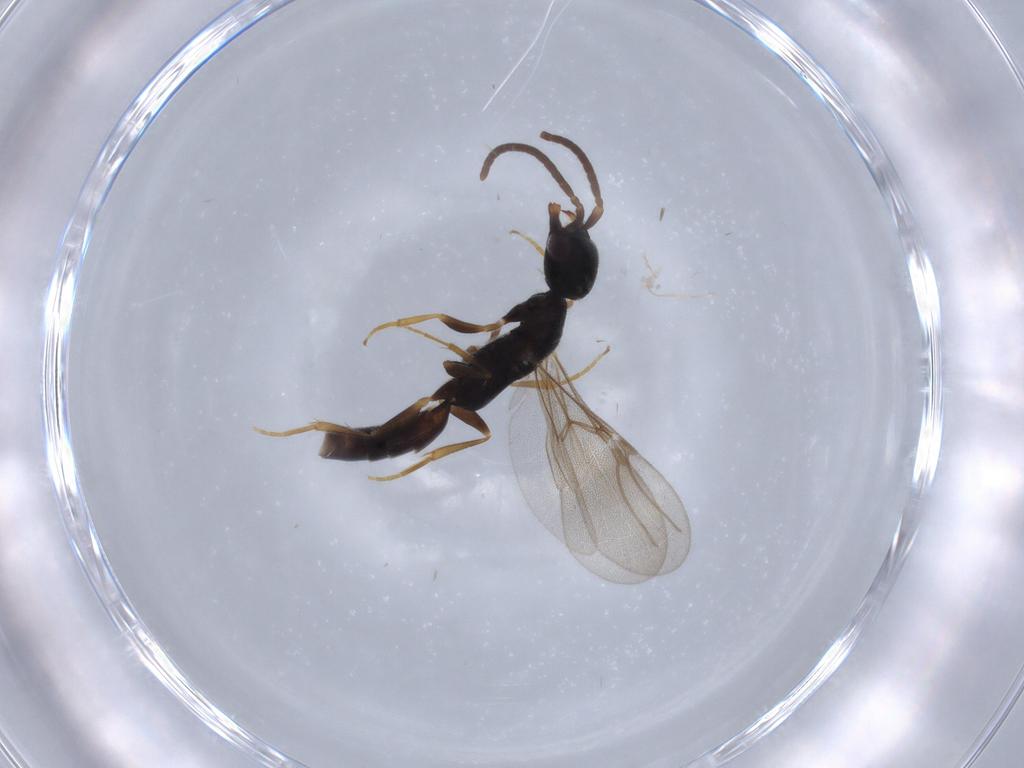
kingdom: Animalia
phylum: Arthropoda
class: Insecta
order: Hymenoptera
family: Bethylidae
